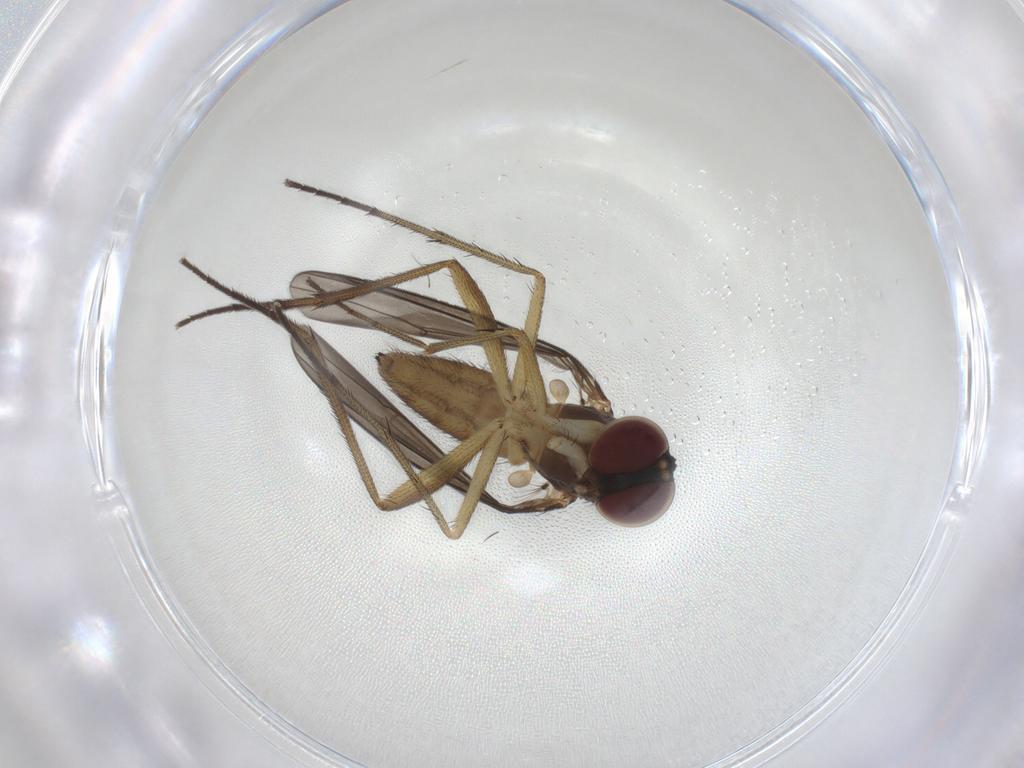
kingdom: Animalia
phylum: Arthropoda
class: Insecta
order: Diptera
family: Dolichopodidae
